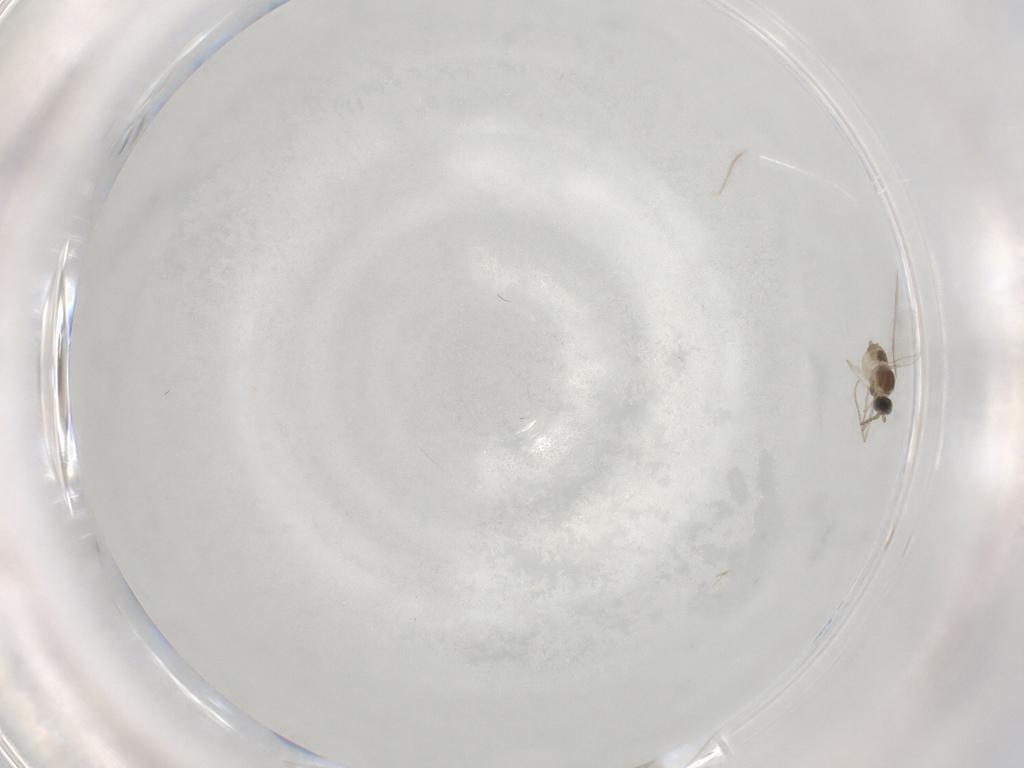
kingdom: Animalia
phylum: Arthropoda
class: Insecta
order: Diptera
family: Cecidomyiidae
